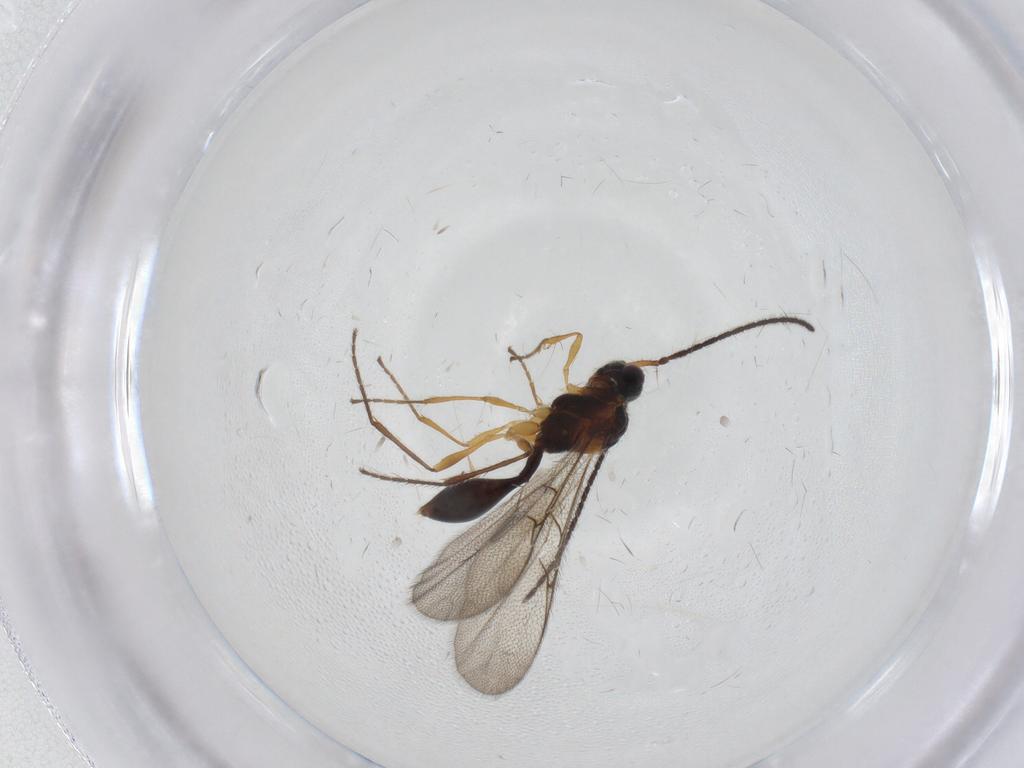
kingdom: Animalia
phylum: Arthropoda
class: Insecta
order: Hymenoptera
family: Diapriidae
